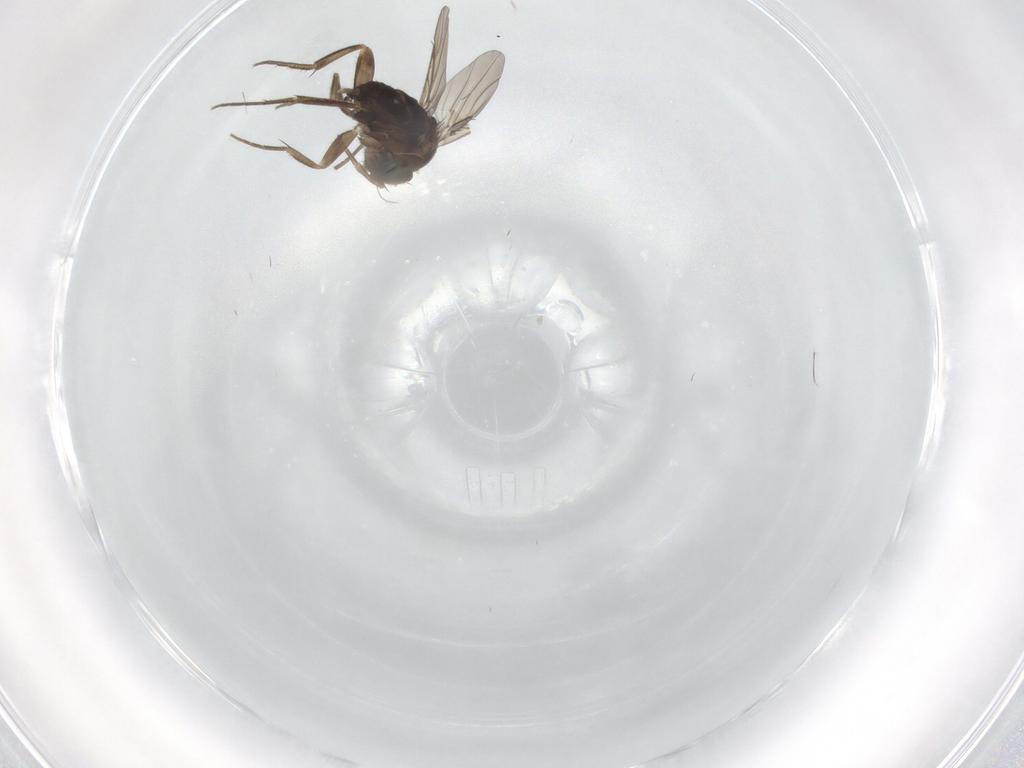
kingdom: Animalia
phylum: Arthropoda
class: Insecta
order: Diptera
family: Phoridae
